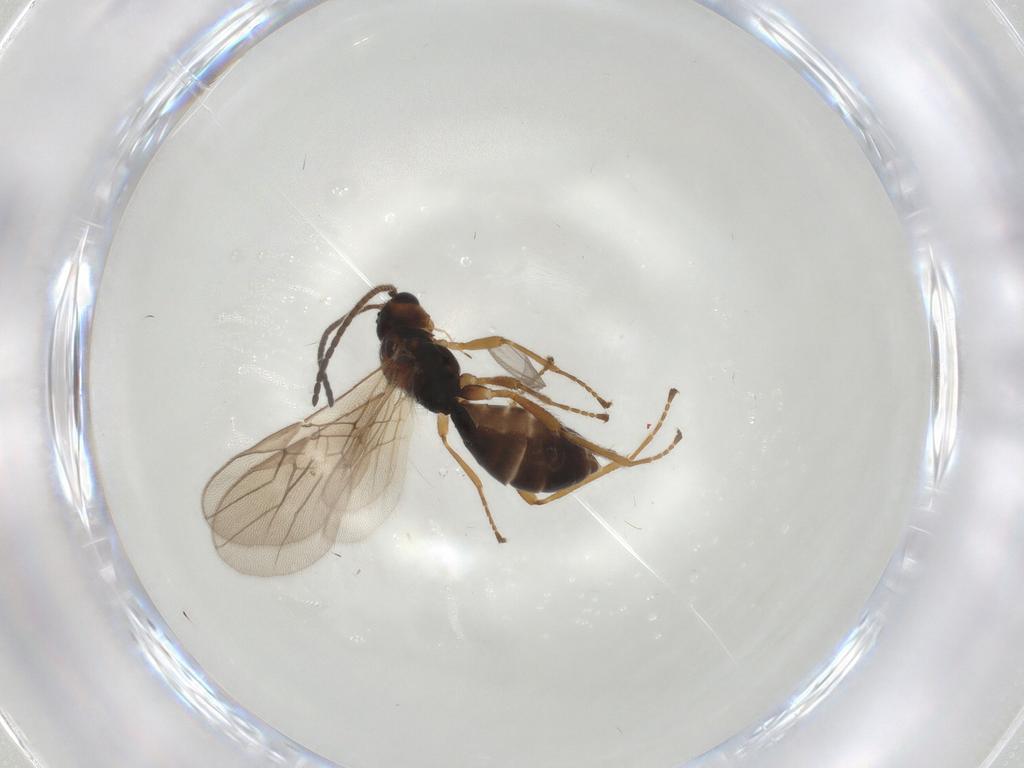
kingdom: Animalia
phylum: Arthropoda
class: Insecta
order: Hymenoptera
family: Braconidae
